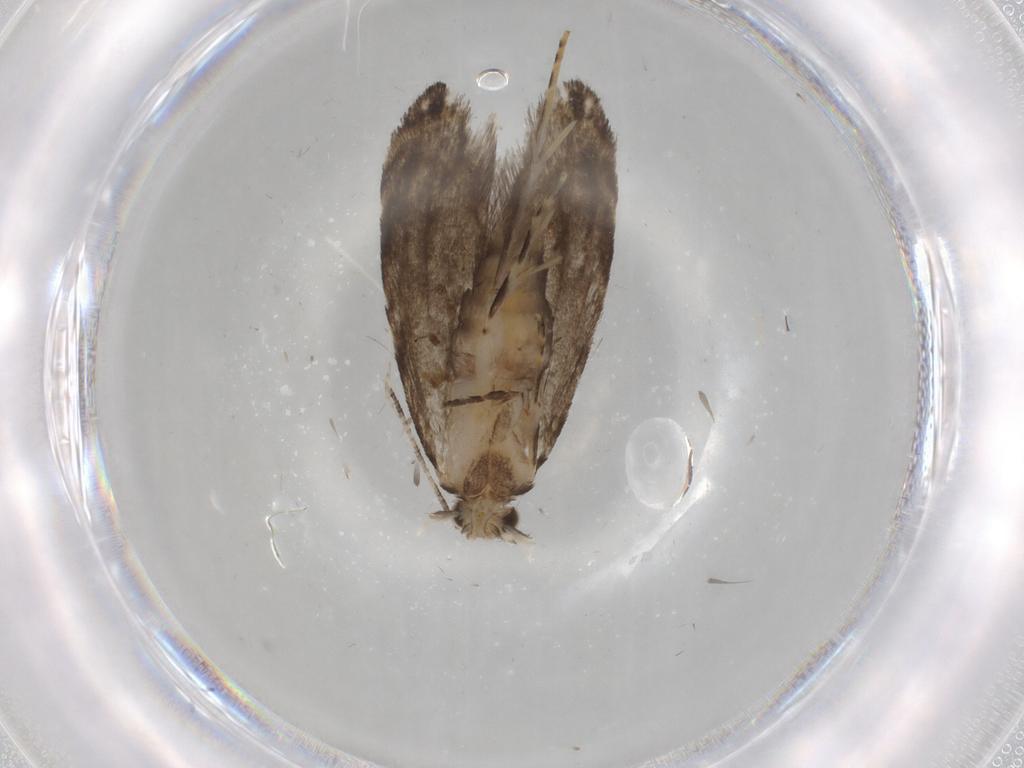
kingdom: Animalia
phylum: Arthropoda
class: Insecta
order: Lepidoptera
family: Tineidae
